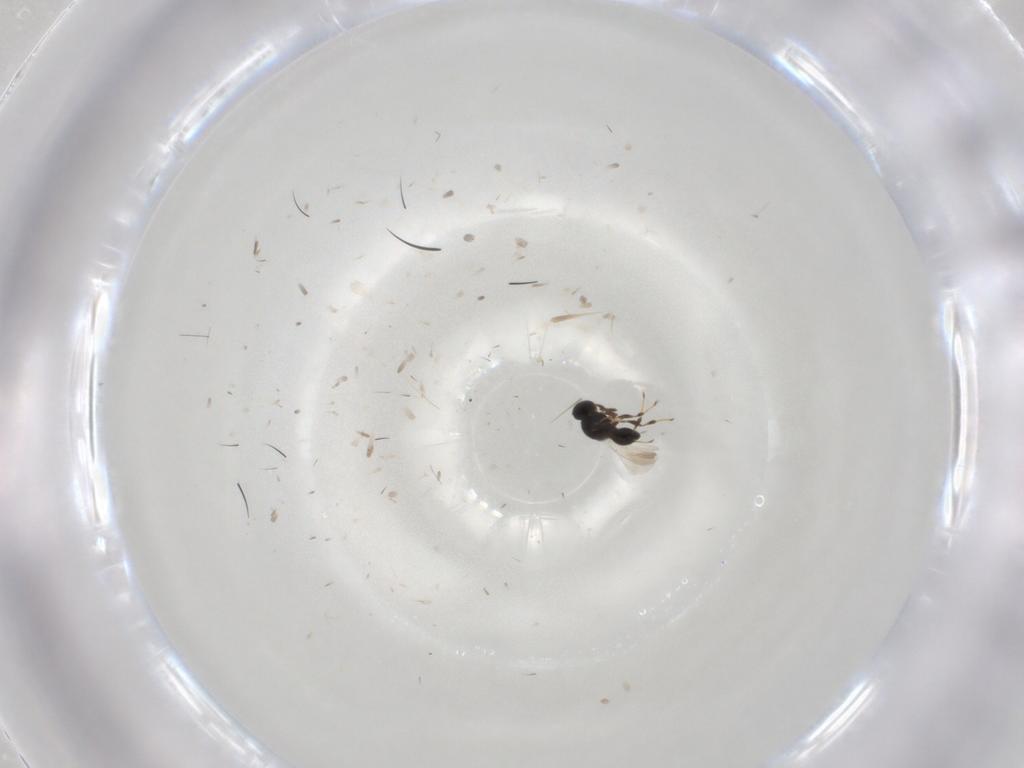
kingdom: Animalia
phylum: Arthropoda
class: Insecta
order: Hymenoptera
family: Platygastridae
